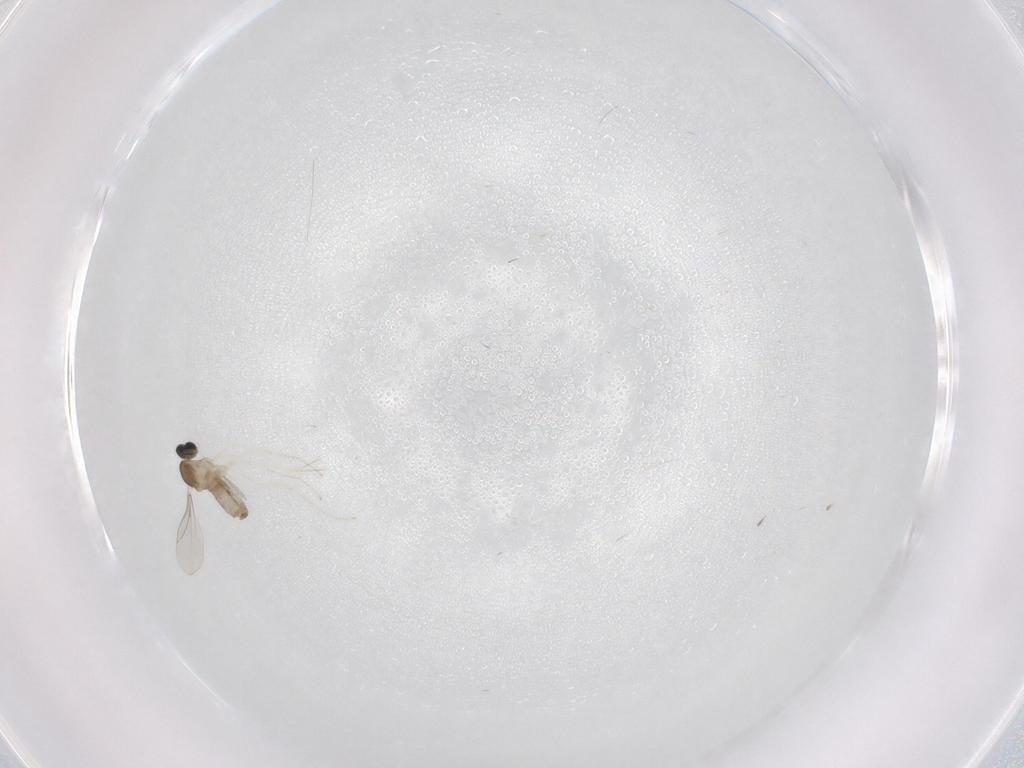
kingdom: Animalia
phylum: Arthropoda
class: Insecta
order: Diptera
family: Cecidomyiidae
